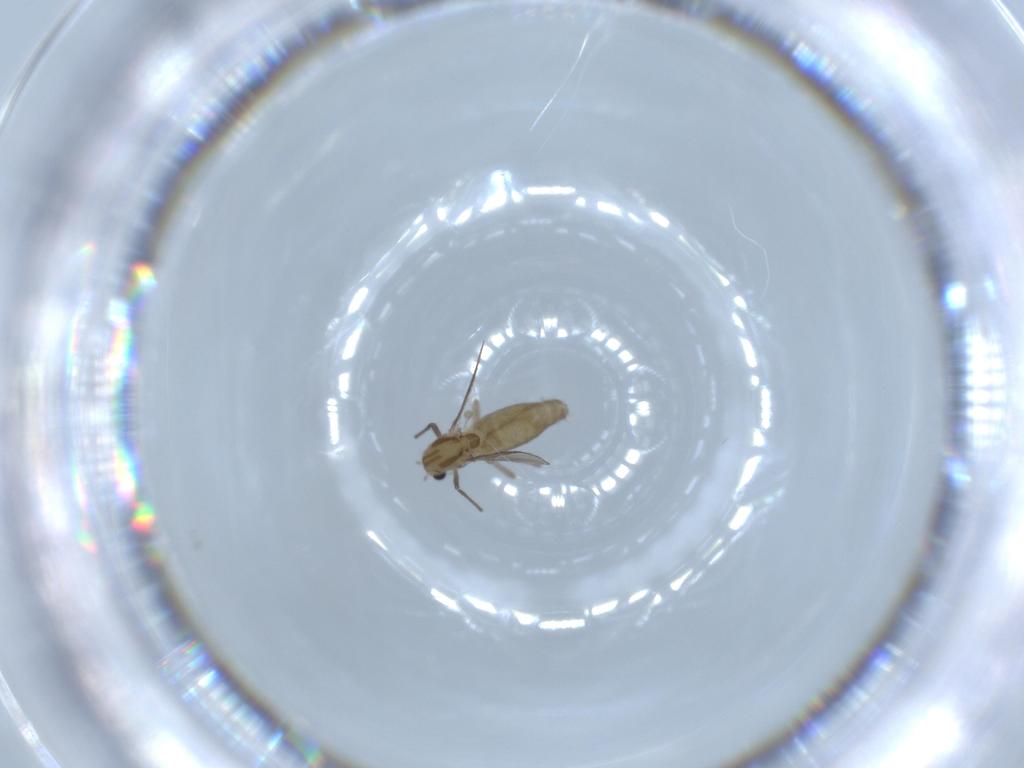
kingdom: Animalia
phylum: Arthropoda
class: Insecta
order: Diptera
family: Chironomidae
